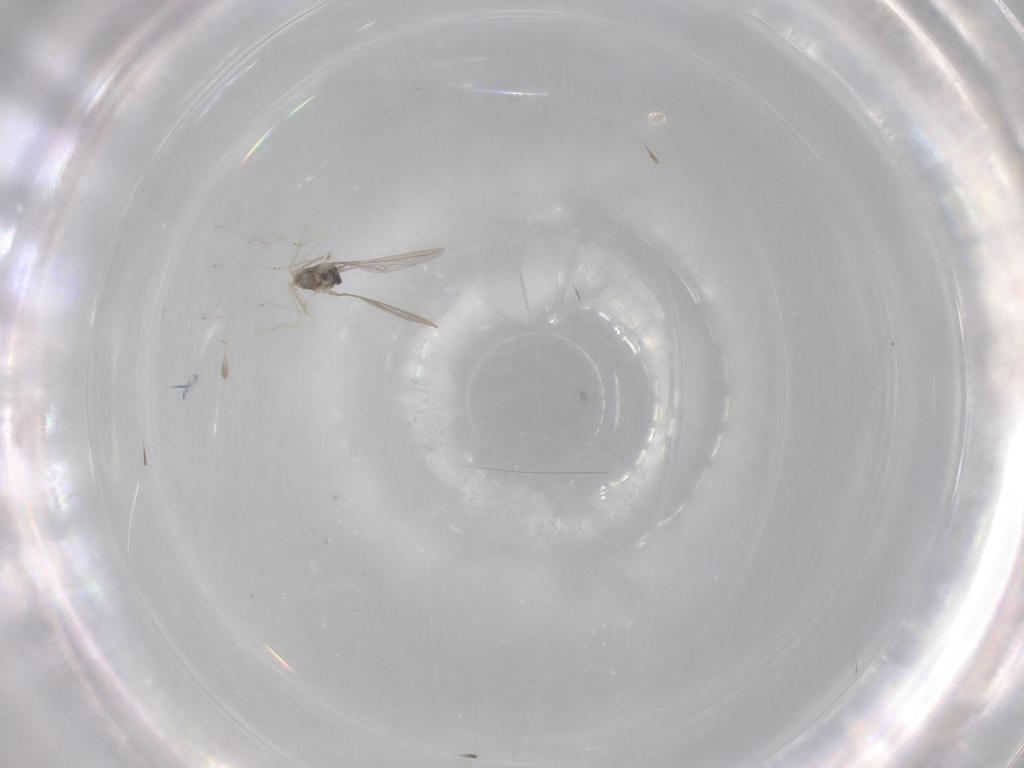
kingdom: Animalia
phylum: Arthropoda
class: Insecta
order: Diptera
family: Cecidomyiidae
